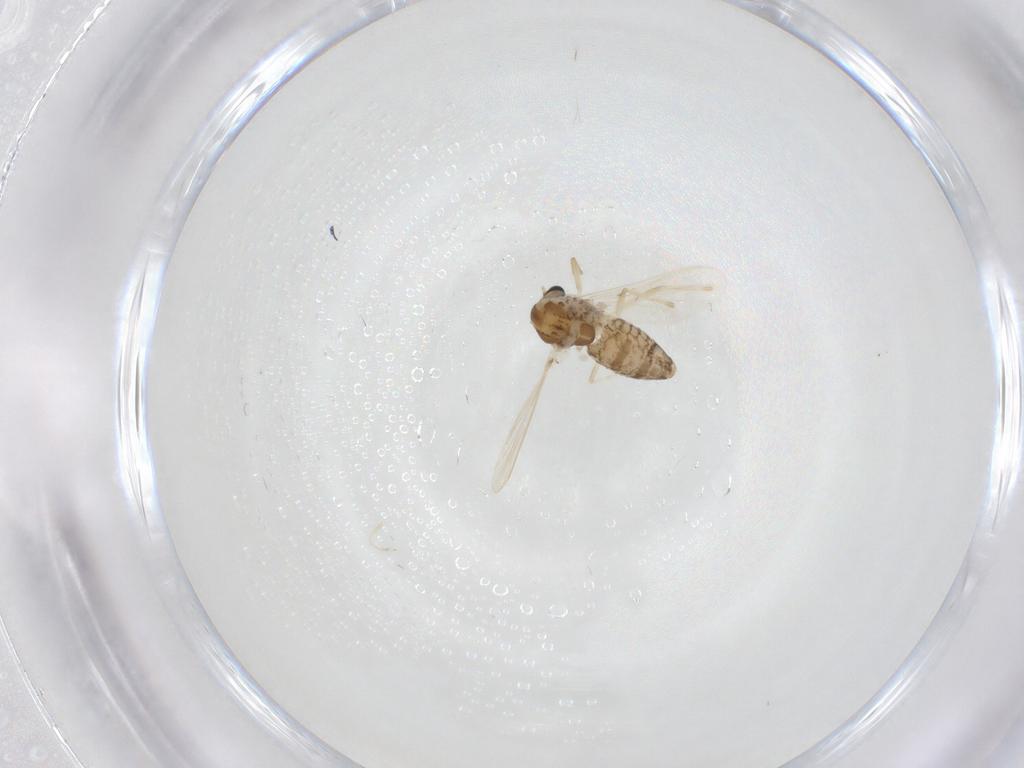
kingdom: Animalia
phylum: Arthropoda
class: Insecta
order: Diptera
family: Chironomidae
